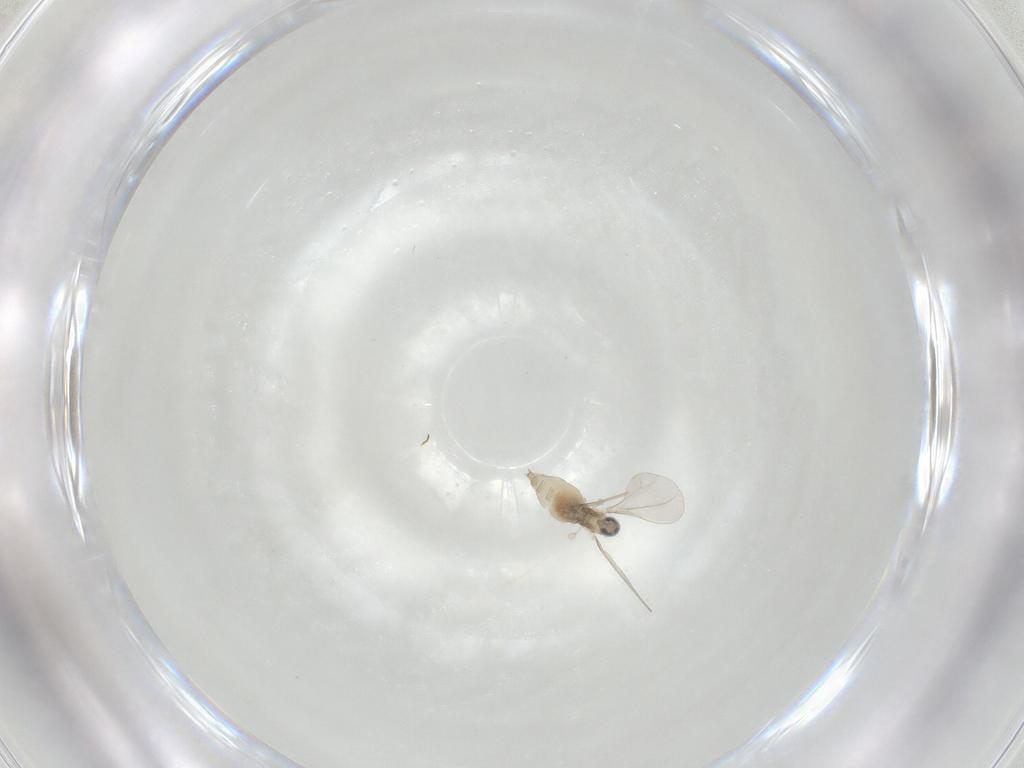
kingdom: Animalia
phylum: Arthropoda
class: Insecta
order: Diptera
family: Cecidomyiidae
